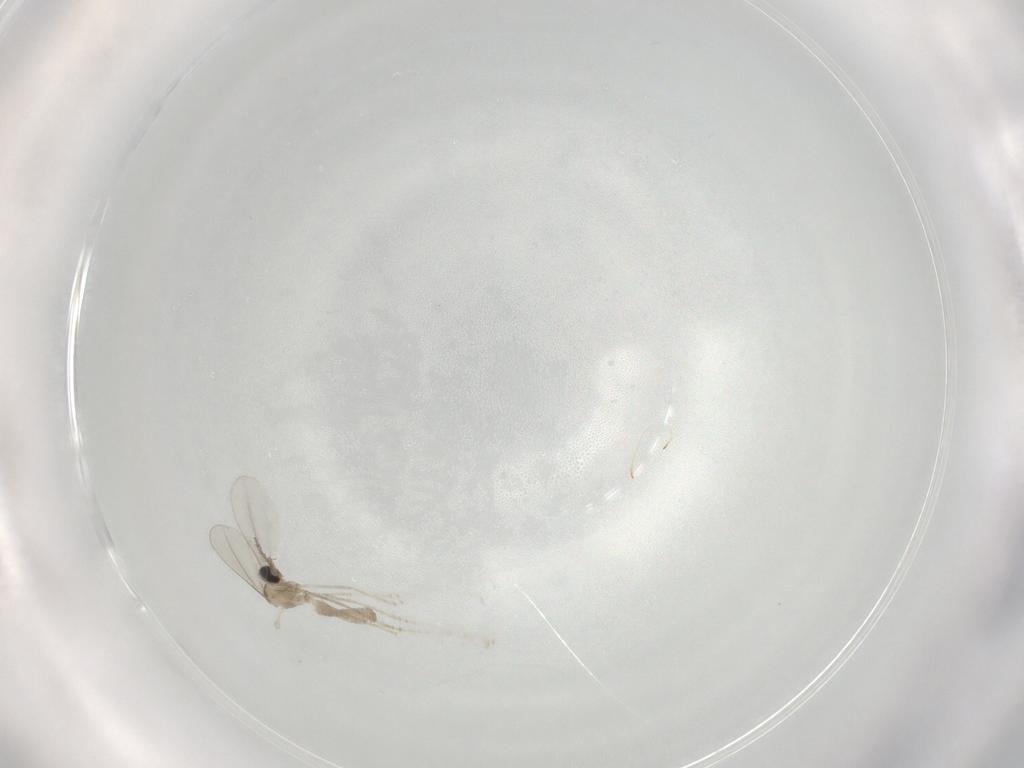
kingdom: Animalia
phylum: Arthropoda
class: Insecta
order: Diptera
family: Cecidomyiidae
